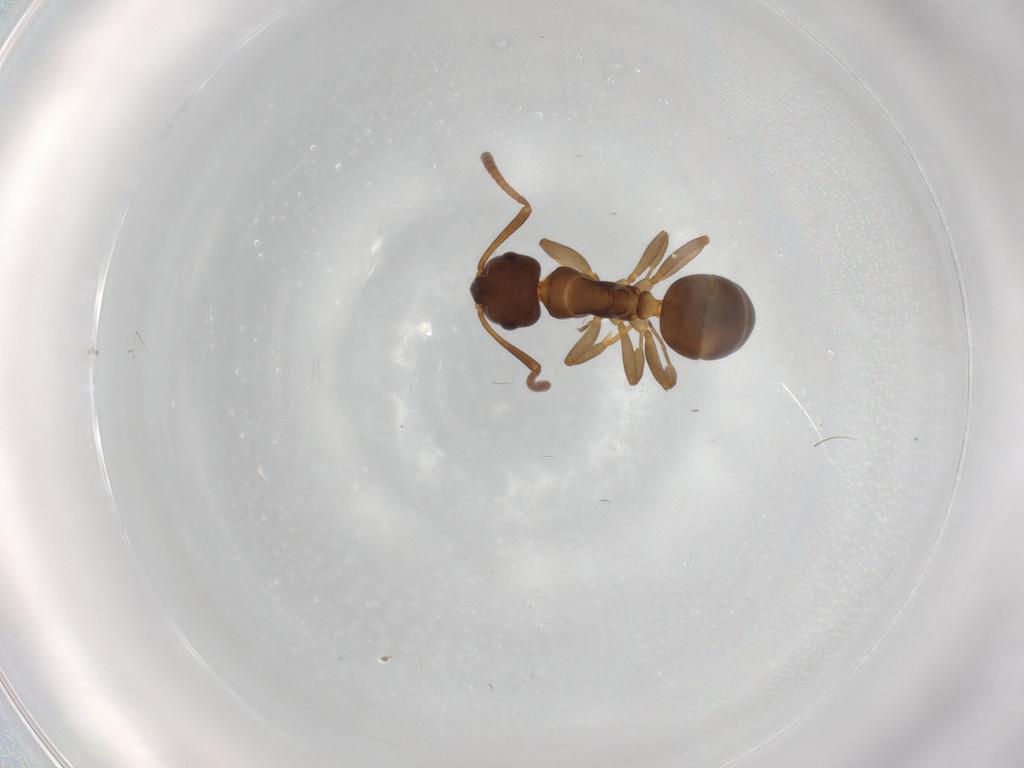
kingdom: Animalia
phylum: Arthropoda
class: Insecta
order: Hymenoptera
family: Formicidae
